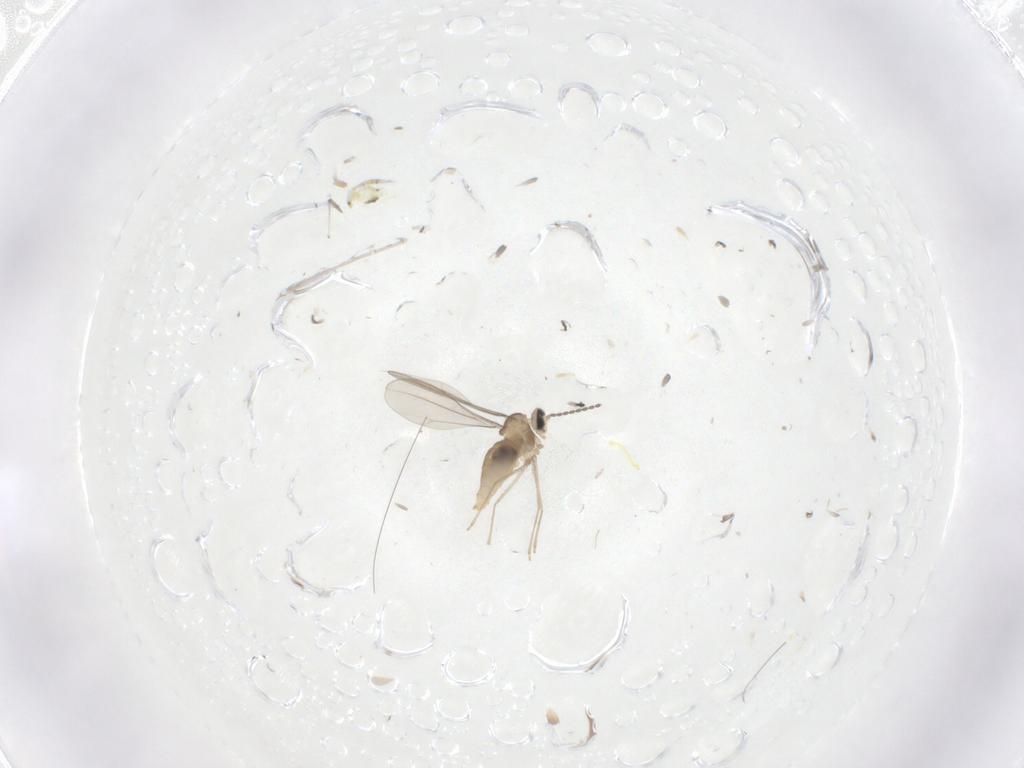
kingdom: Animalia
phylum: Arthropoda
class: Insecta
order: Diptera
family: Cecidomyiidae
